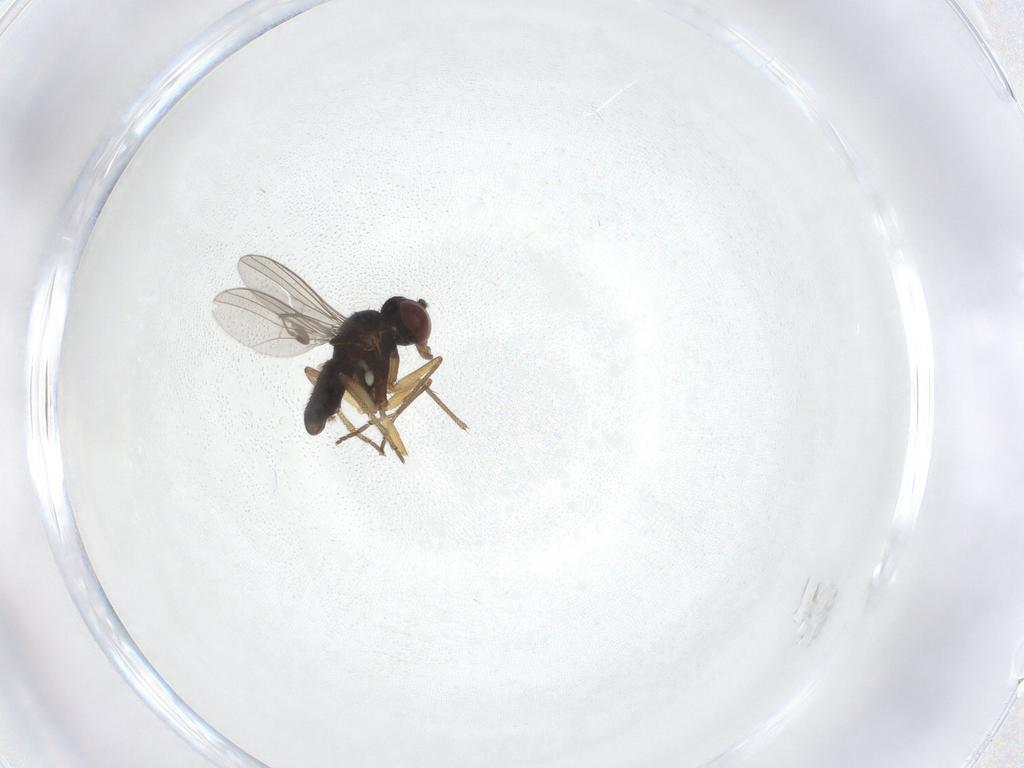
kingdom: Animalia
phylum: Arthropoda
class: Insecta
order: Diptera
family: Dolichopodidae
